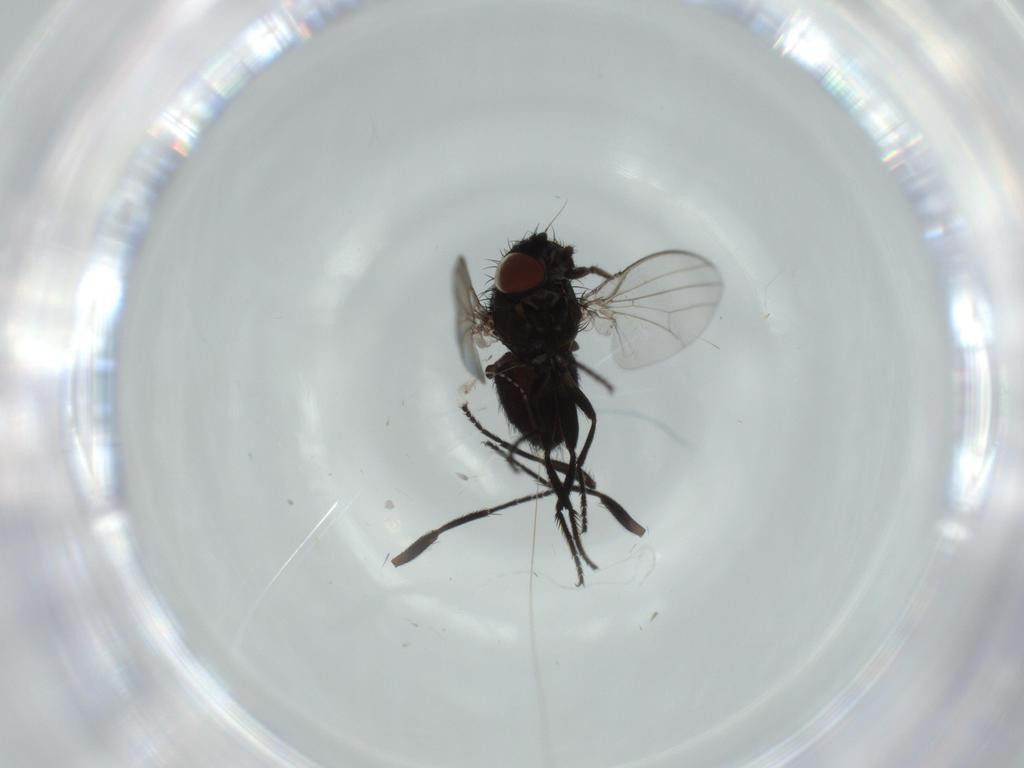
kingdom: Animalia
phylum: Arthropoda
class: Insecta
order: Diptera
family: Milichiidae
